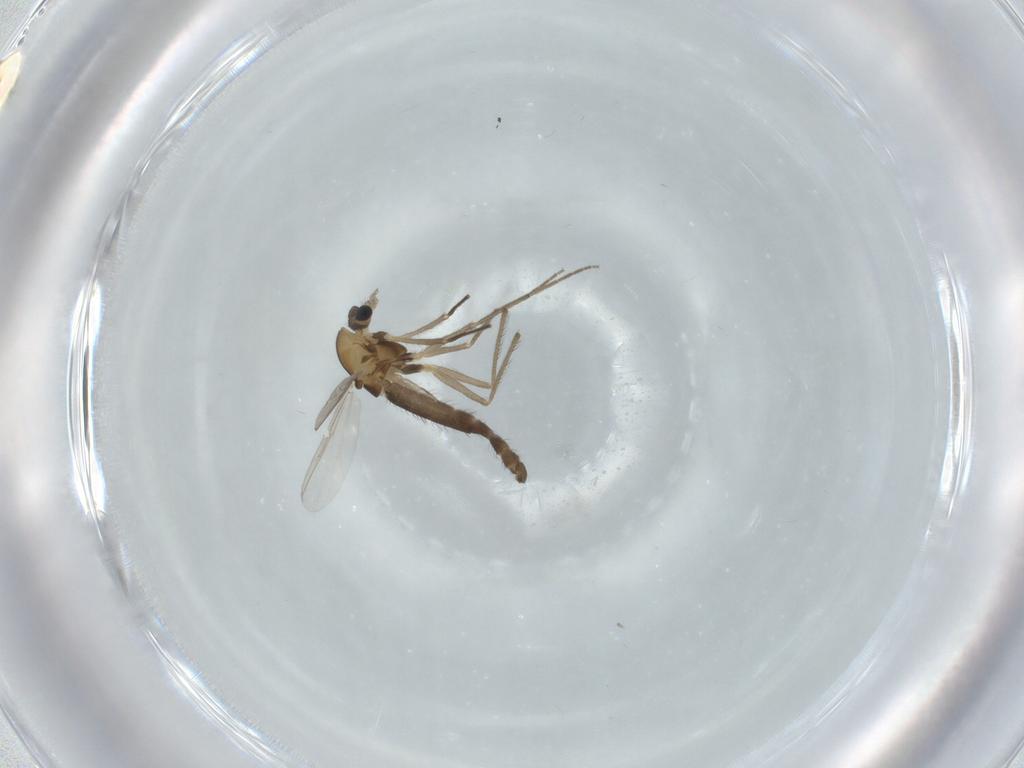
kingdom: Animalia
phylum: Arthropoda
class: Insecta
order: Diptera
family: Chironomidae
